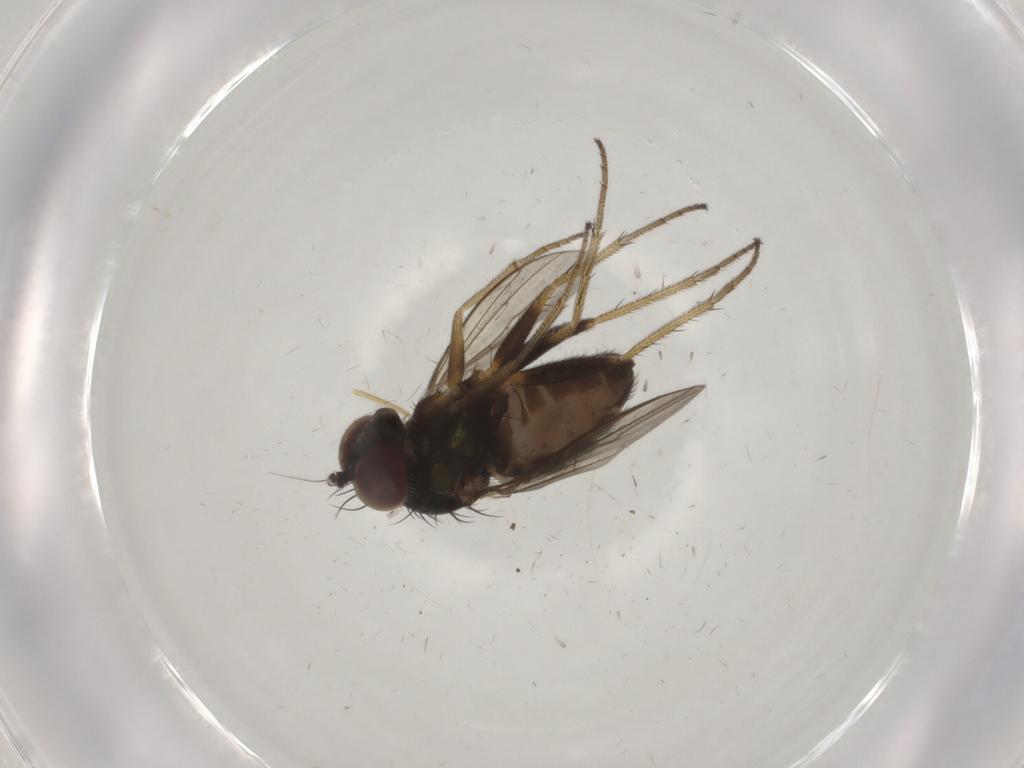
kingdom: Animalia
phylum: Arthropoda
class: Insecta
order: Diptera
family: Dolichopodidae
